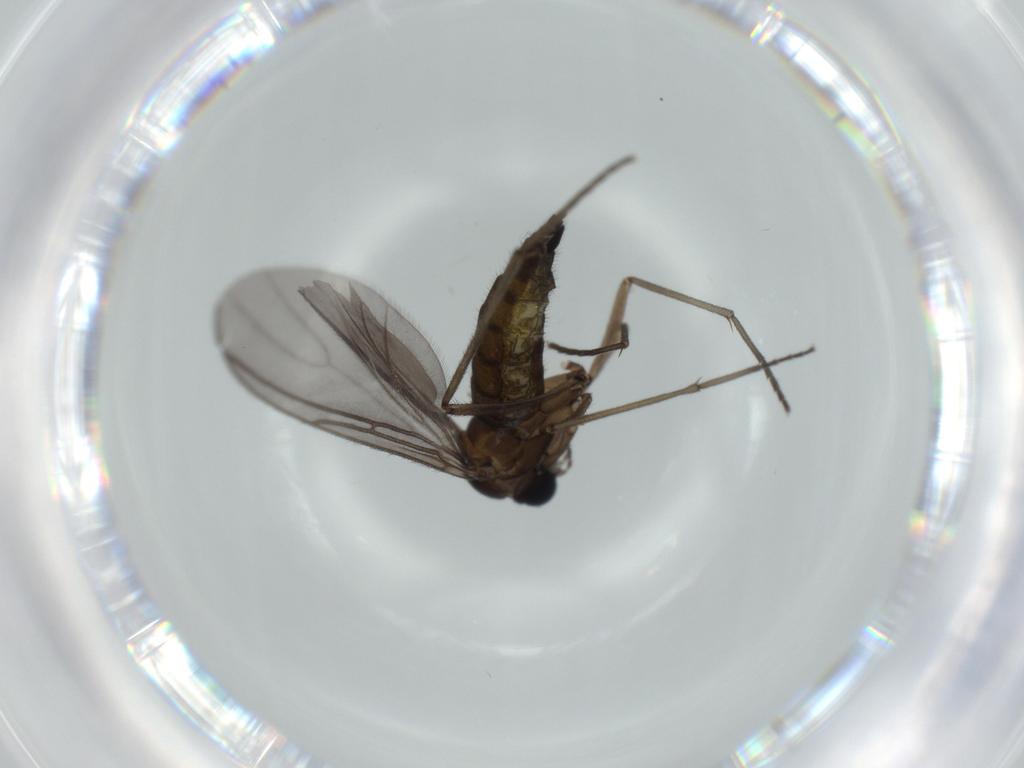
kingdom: Animalia
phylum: Arthropoda
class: Insecta
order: Diptera
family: Sciaridae
